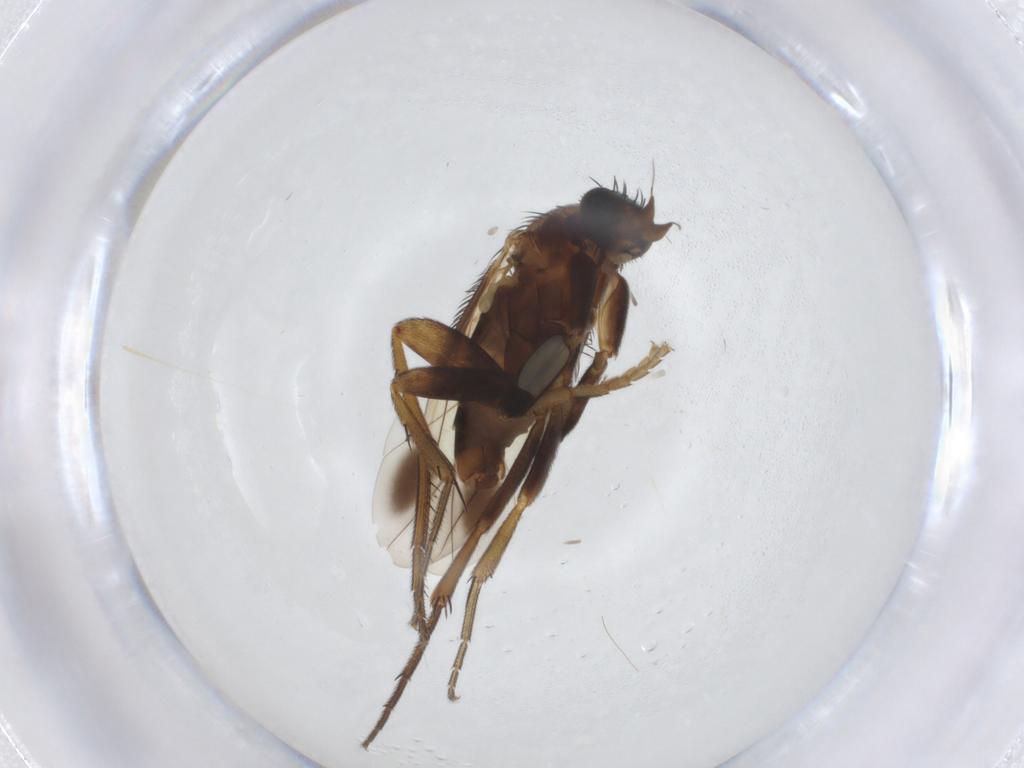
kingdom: Animalia
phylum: Arthropoda
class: Insecta
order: Diptera
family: Phoridae
